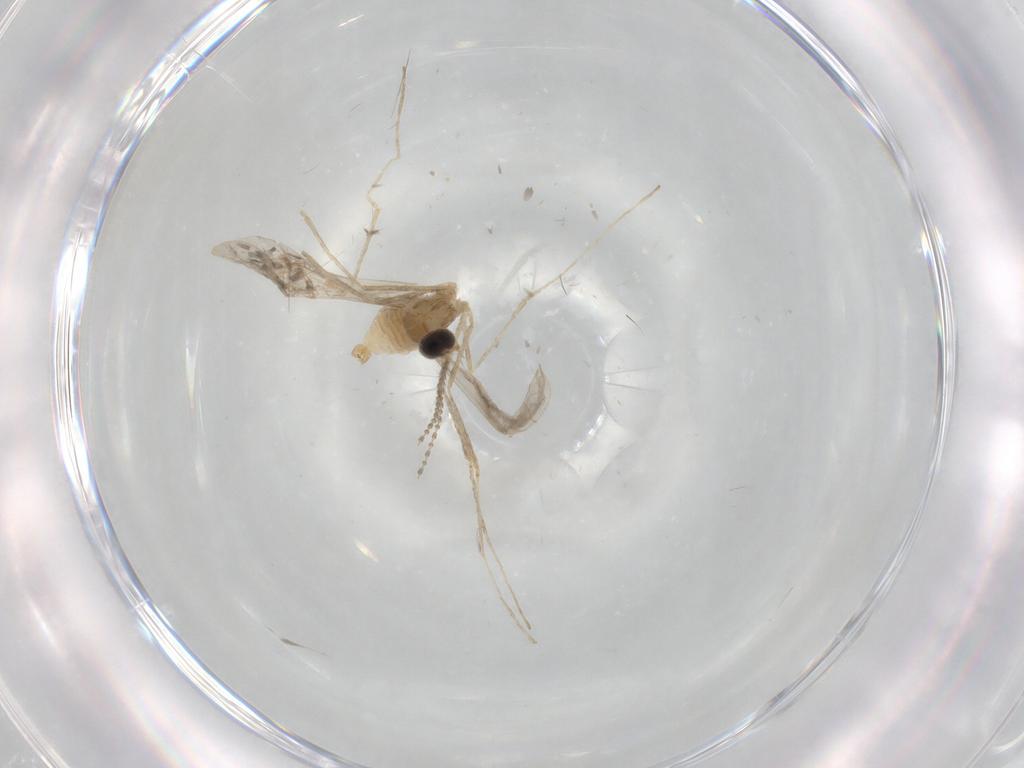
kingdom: Animalia
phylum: Arthropoda
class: Insecta
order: Diptera
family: Cecidomyiidae
